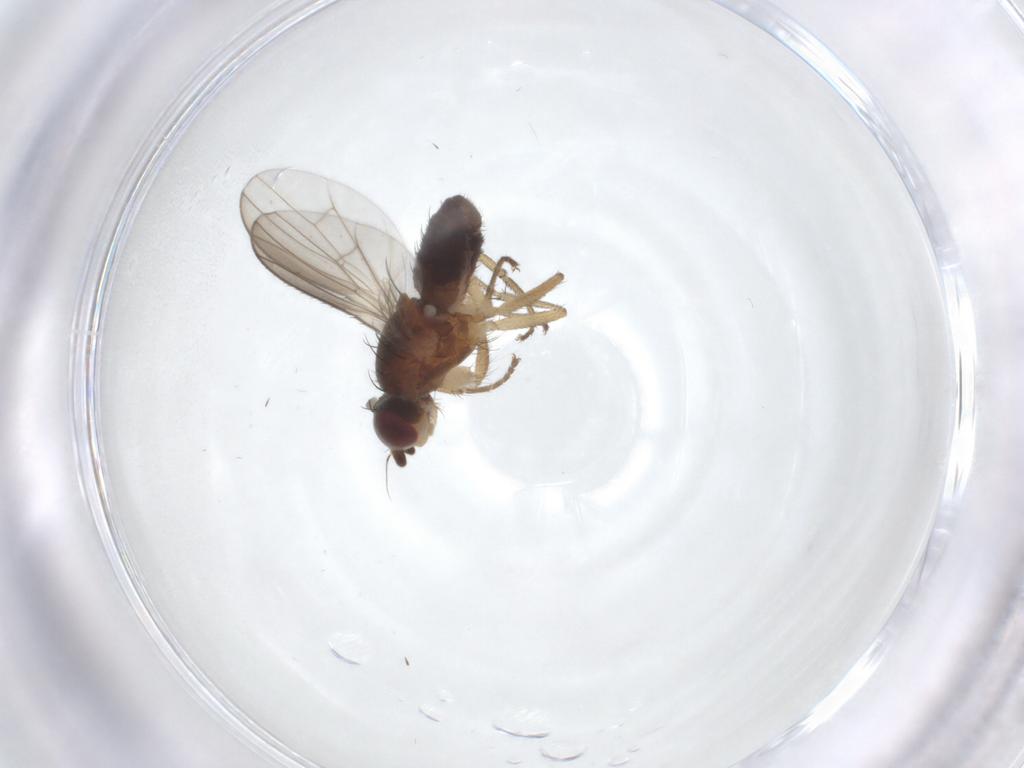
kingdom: Animalia
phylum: Arthropoda
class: Insecta
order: Diptera
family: Heleomyzidae
